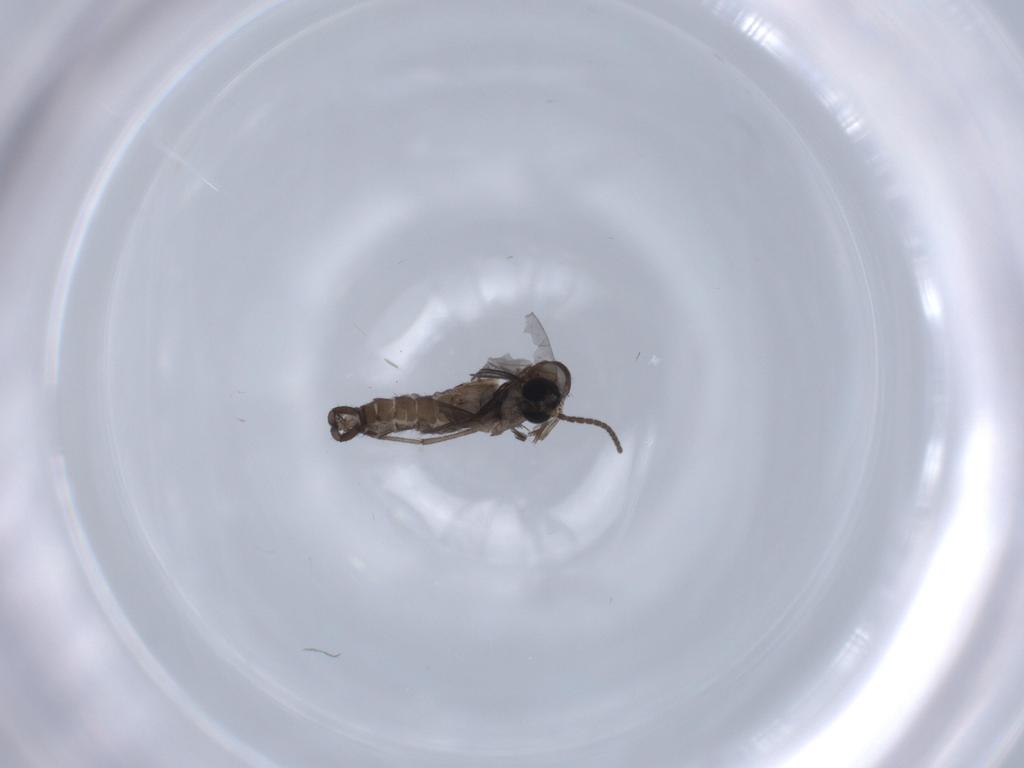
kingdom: Animalia
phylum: Arthropoda
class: Insecta
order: Diptera
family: Sciaridae
